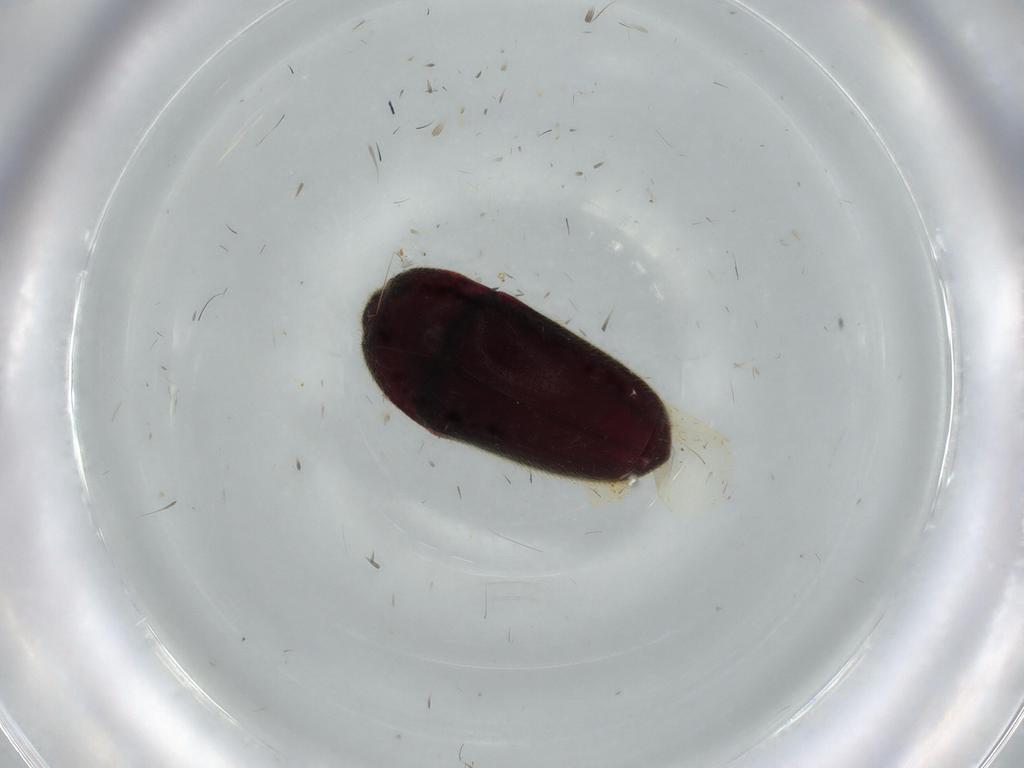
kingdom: Animalia
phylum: Arthropoda
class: Insecta
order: Coleoptera
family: Throscidae
